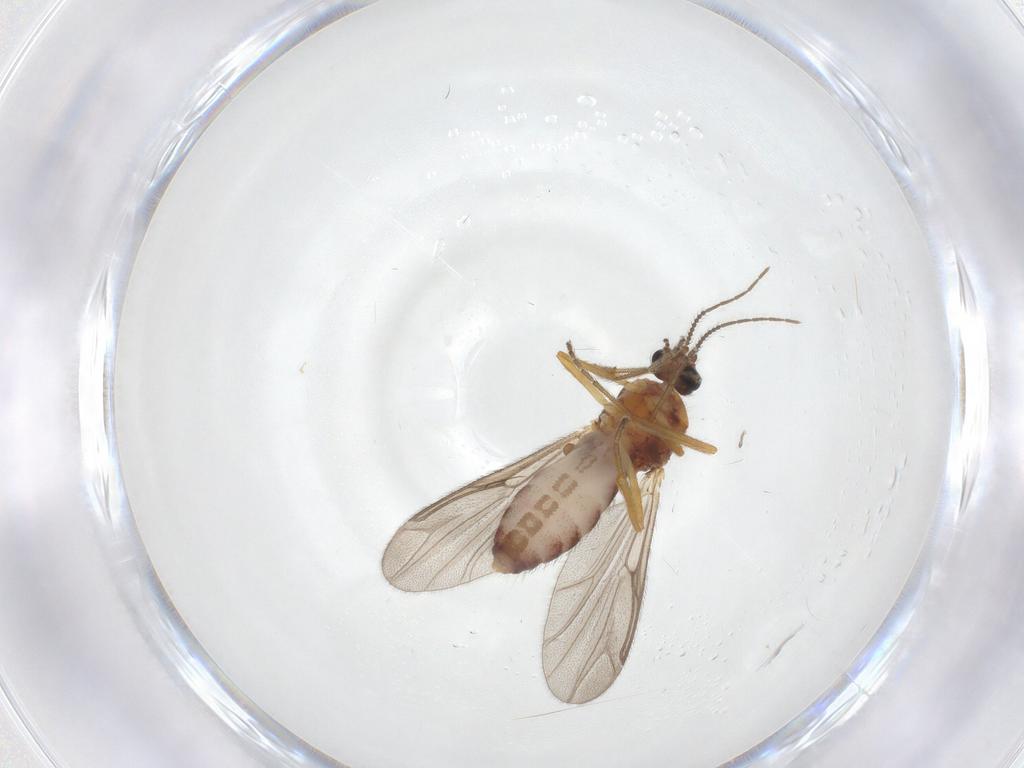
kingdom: Animalia
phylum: Arthropoda
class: Insecta
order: Diptera
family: Ceratopogonidae
